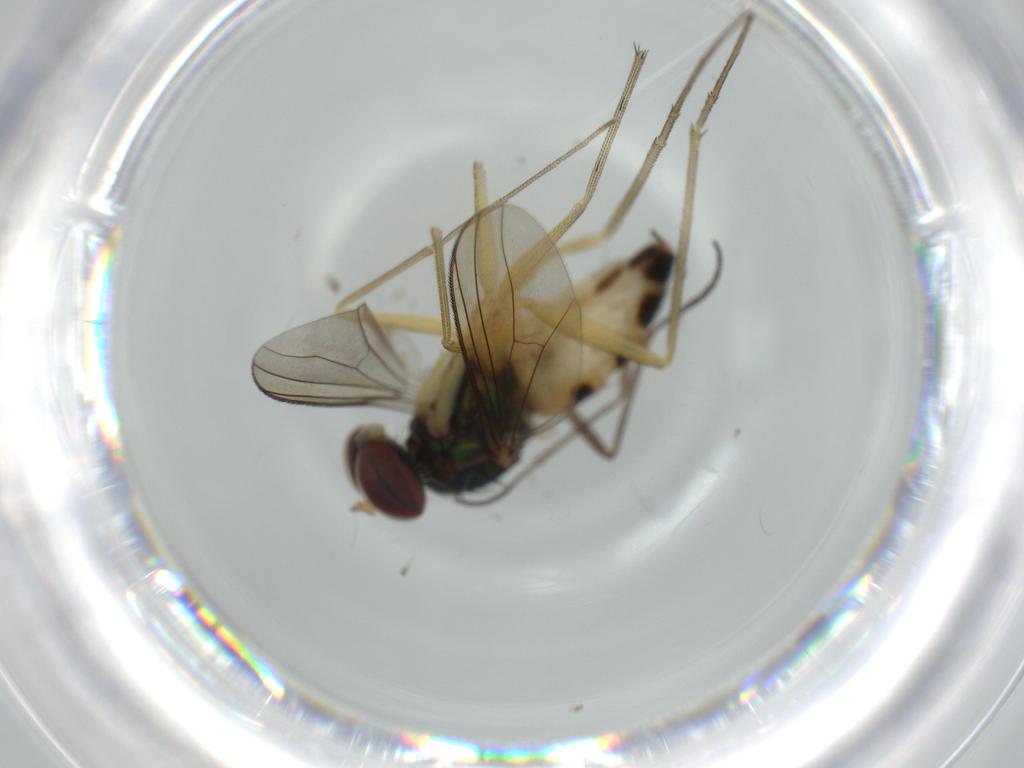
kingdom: Animalia
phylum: Arthropoda
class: Insecta
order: Diptera
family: Dolichopodidae
